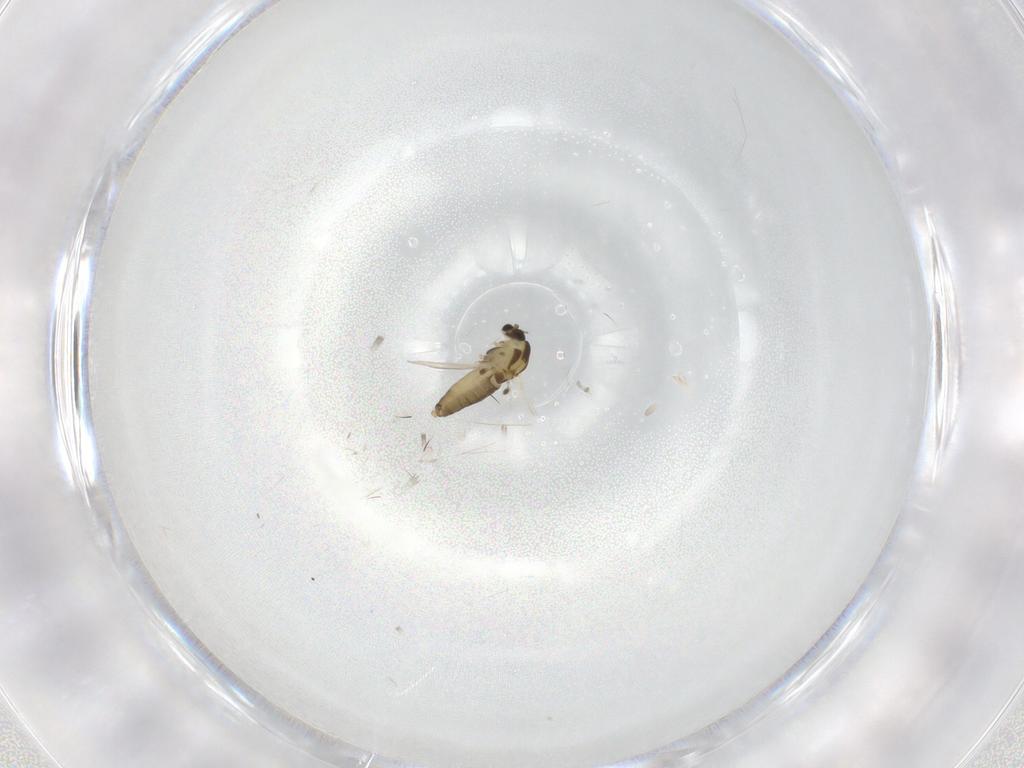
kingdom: Animalia
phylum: Arthropoda
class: Insecta
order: Diptera
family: Chironomidae
